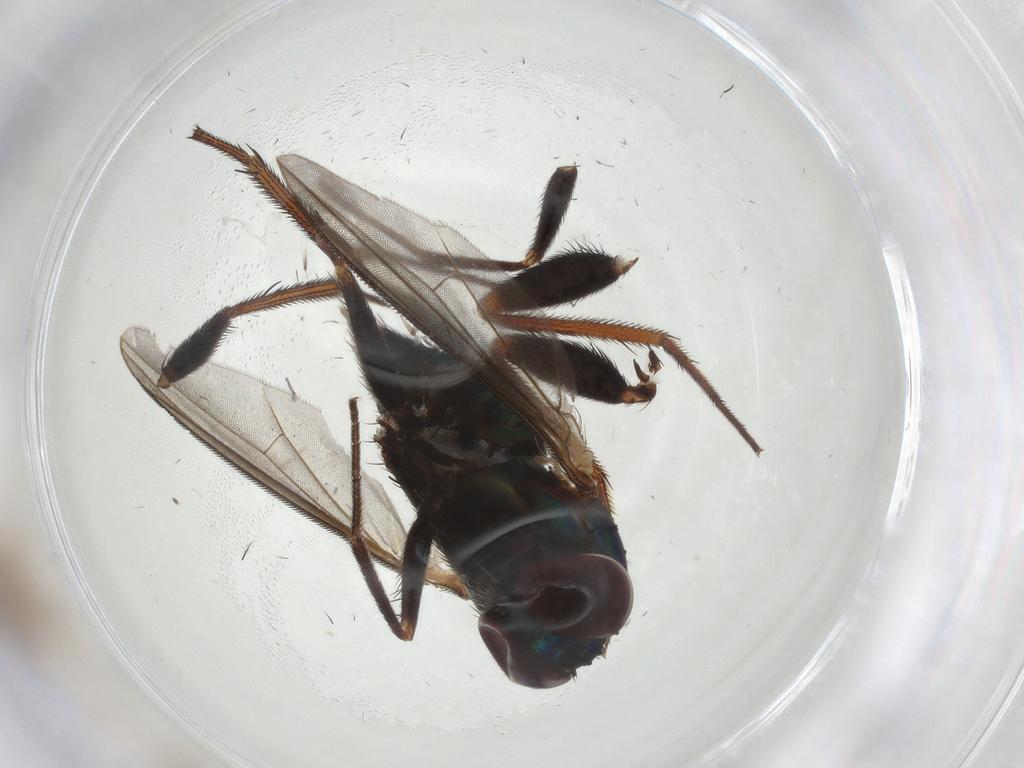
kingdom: Animalia
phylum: Arthropoda
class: Insecta
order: Diptera
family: Dolichopodidae
